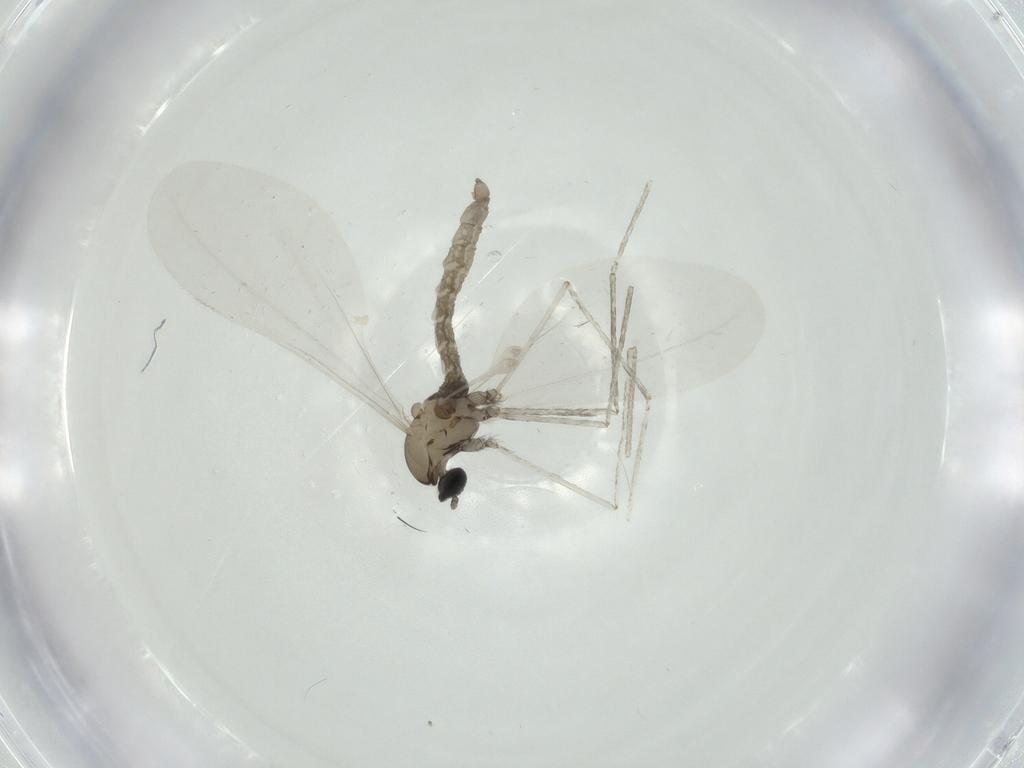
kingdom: Animalia
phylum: Arthropoda
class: Insecta
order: Diptera
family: Cecidomyiidae
